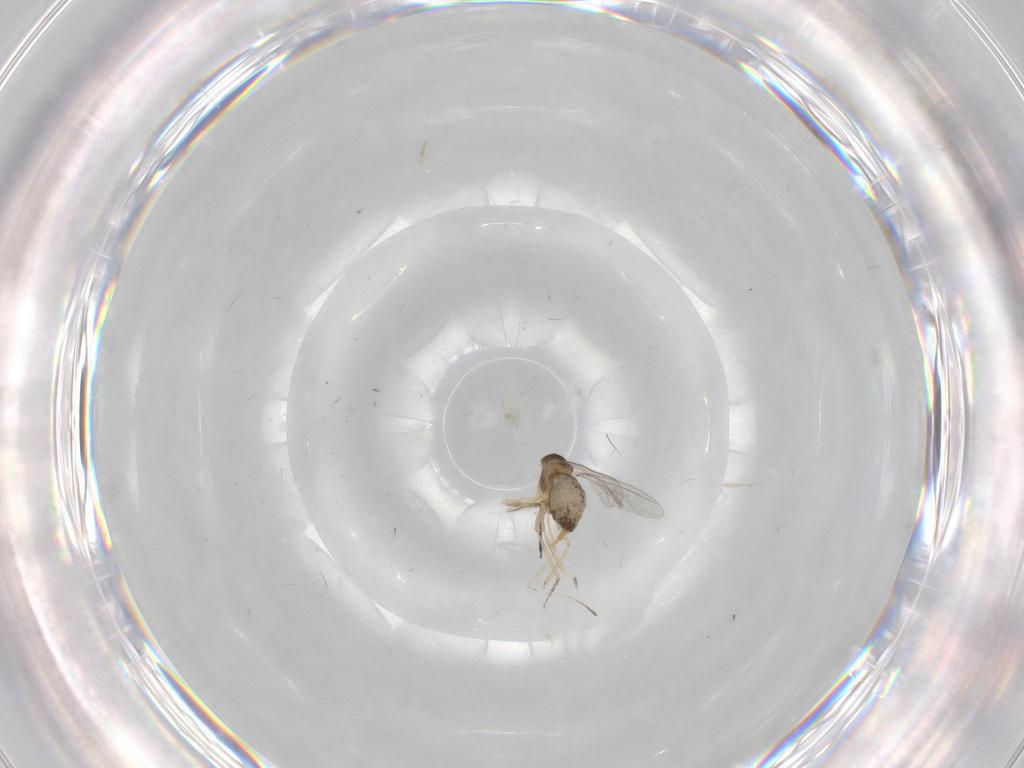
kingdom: Animalia
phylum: Arthropoda
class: Insecta
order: Diptera
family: Cecidomyiidae
